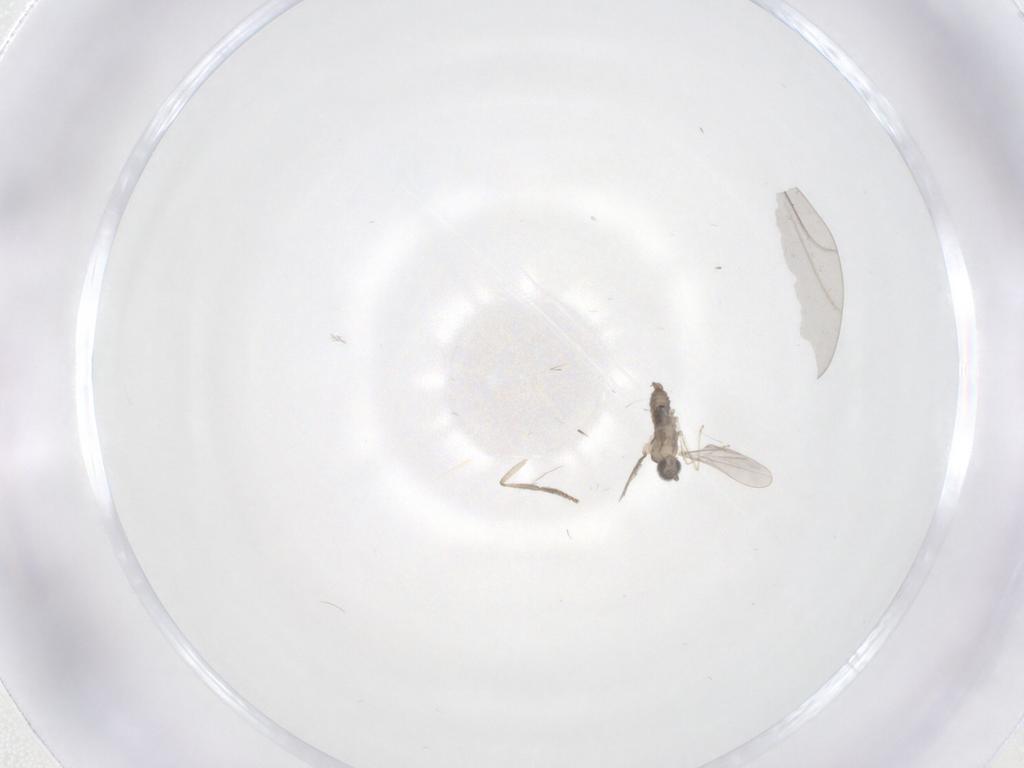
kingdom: Animalia
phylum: Arthropoda
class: Insecta
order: Diptera
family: Cecidomyiidae
